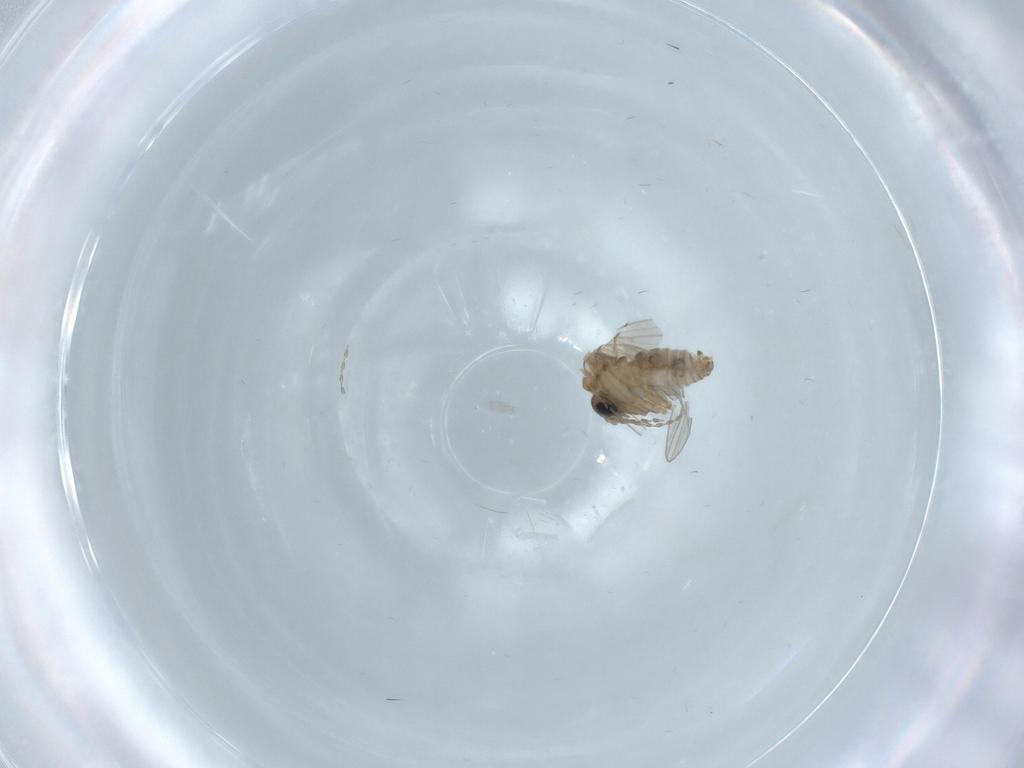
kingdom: Animalia
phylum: Arthropoda
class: Insecta
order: Diptera
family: Psychodidae
